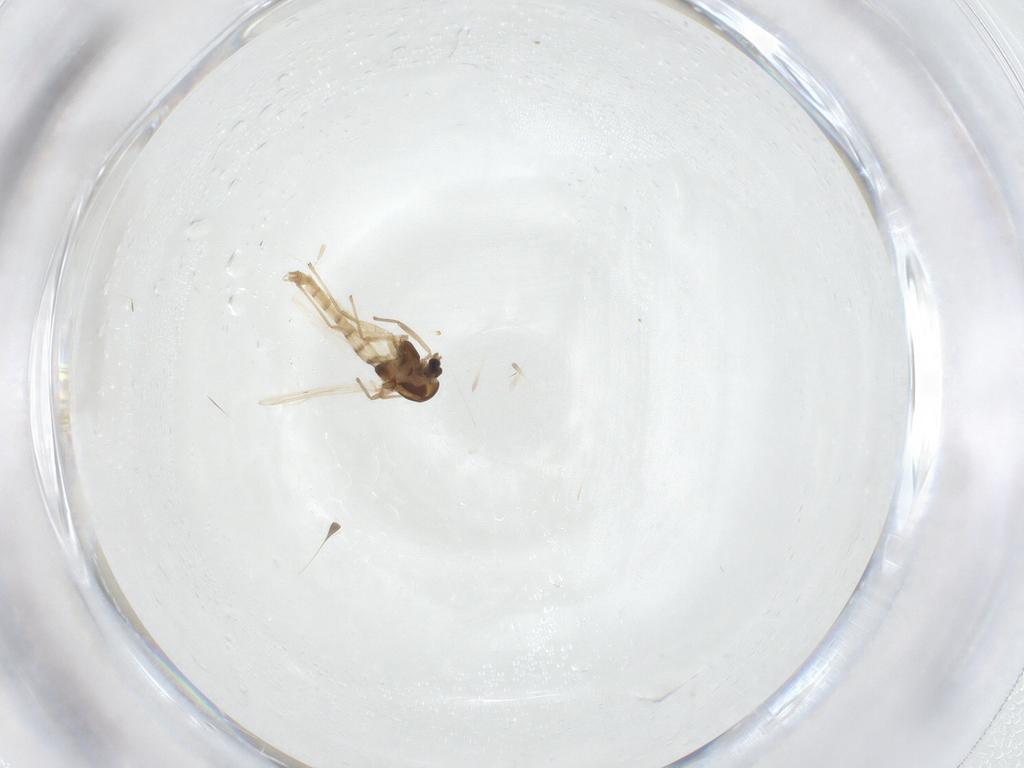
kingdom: Animalia
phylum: Arthropoda
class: Insecta
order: Diptera
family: Chironomidae
